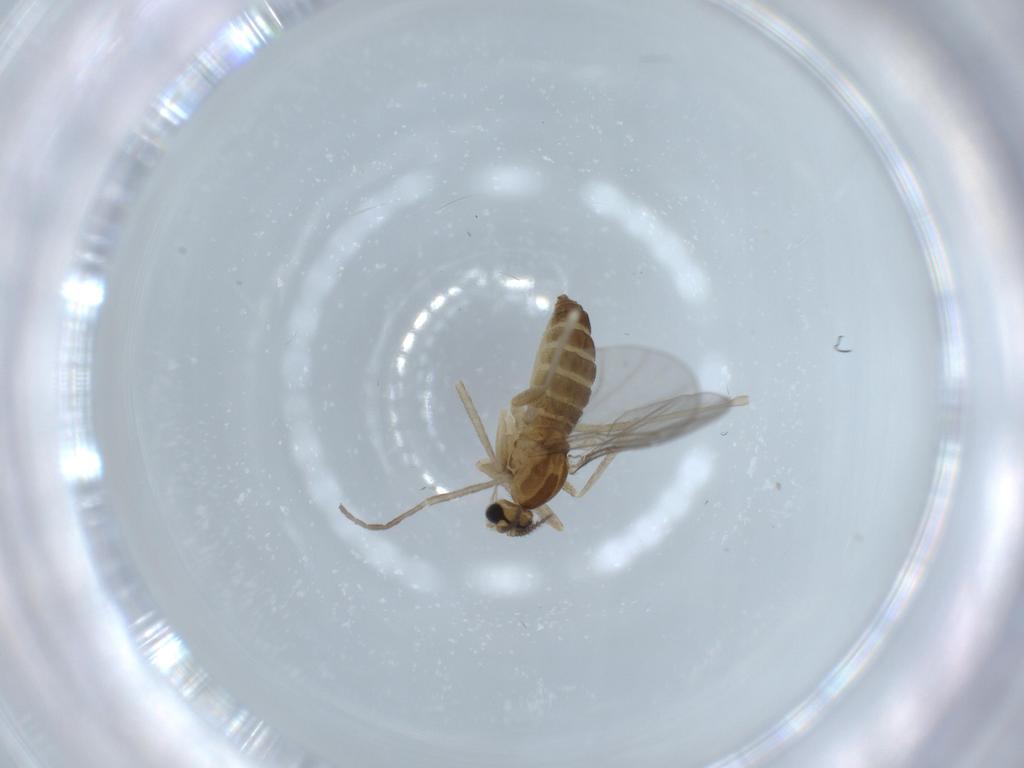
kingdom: Animalia
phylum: Arthropoda
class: Insecta
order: Diptera
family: Cecidomyiidae
